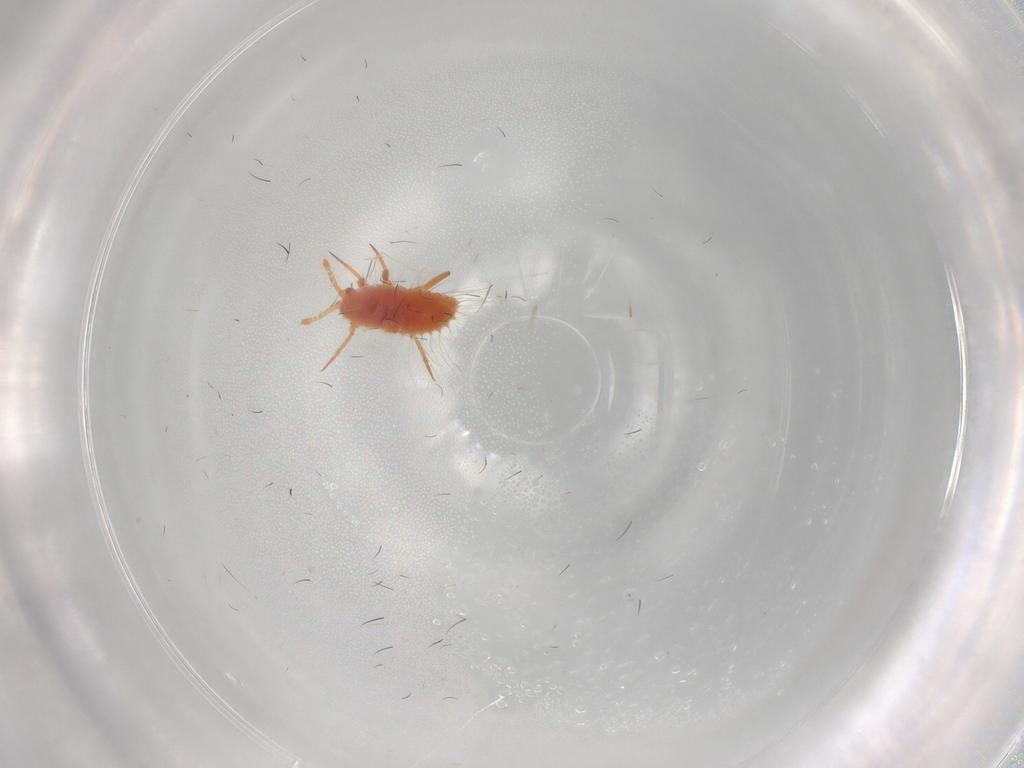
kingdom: Animalia
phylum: Arthropoda
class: Insecta
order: Hemiptera
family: Coccoidea_incertae_sedis
